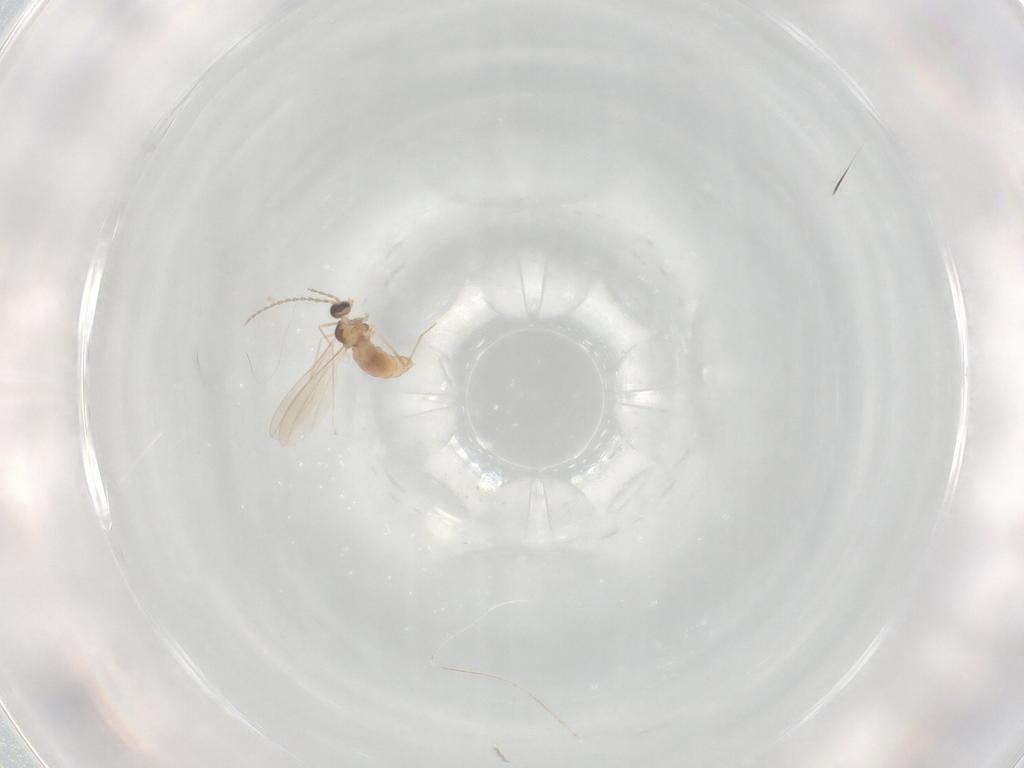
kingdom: Animalia
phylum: Arthropoda
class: Insecta
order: Diptera
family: Cecidomyiidae
